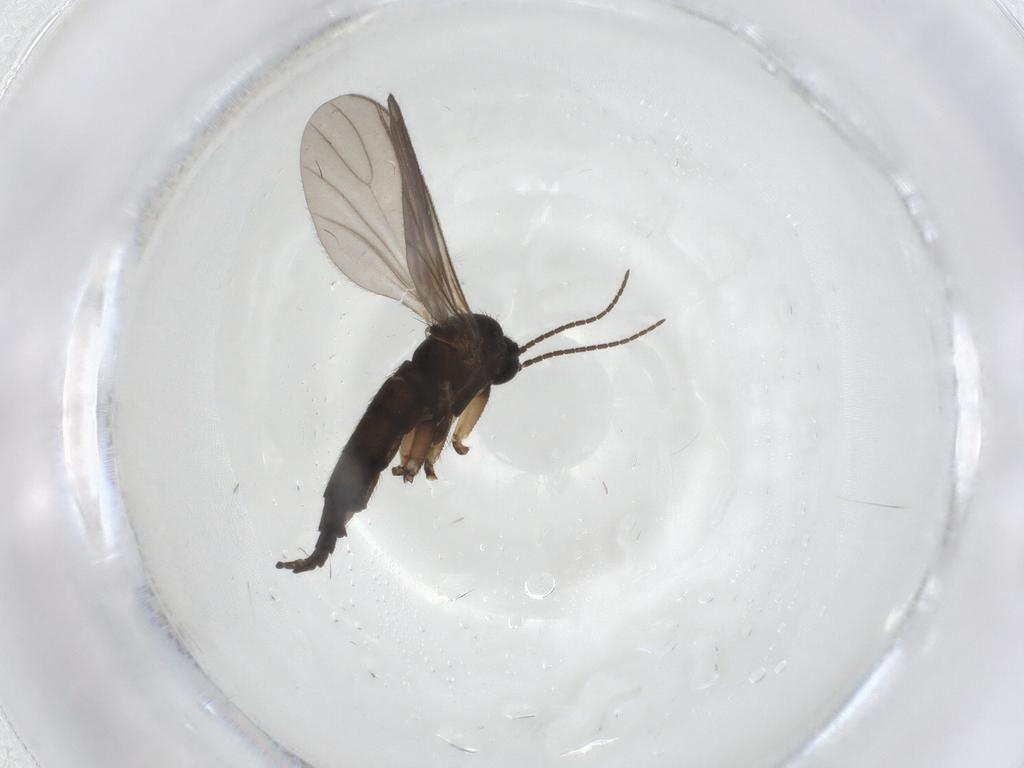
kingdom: Animalia
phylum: Arthropoda
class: Insecta
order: Diptera
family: Sciaridae
